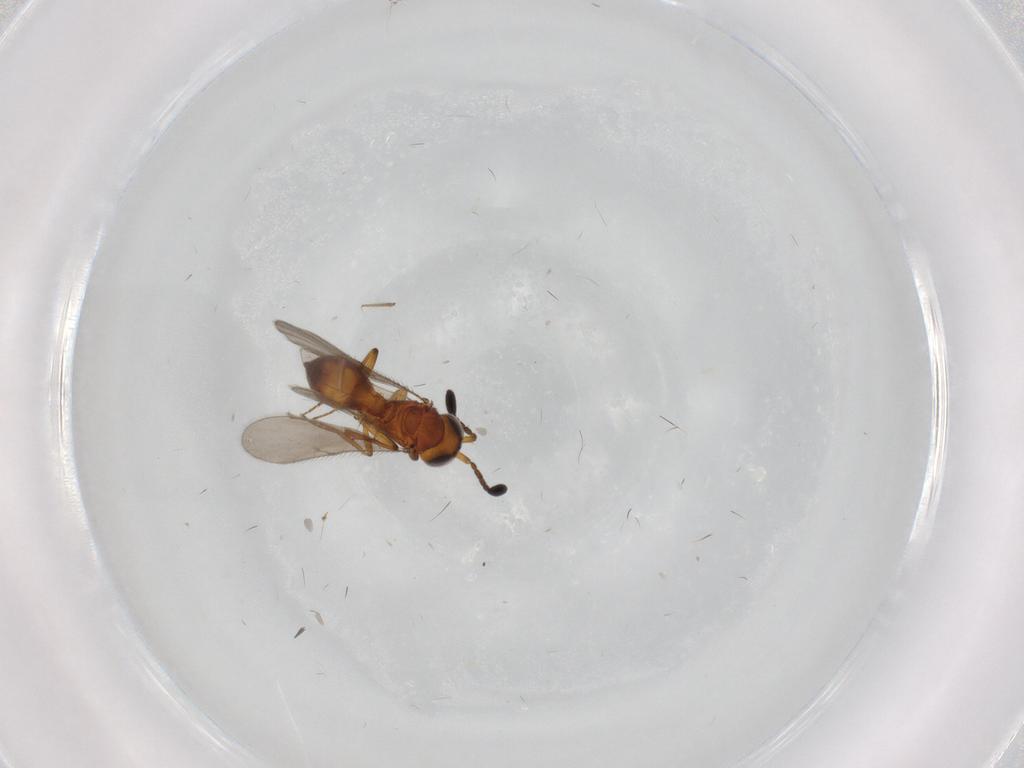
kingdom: Animalia
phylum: Arthropoda
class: Insecta
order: Hymenoptera
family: Scelionidae
